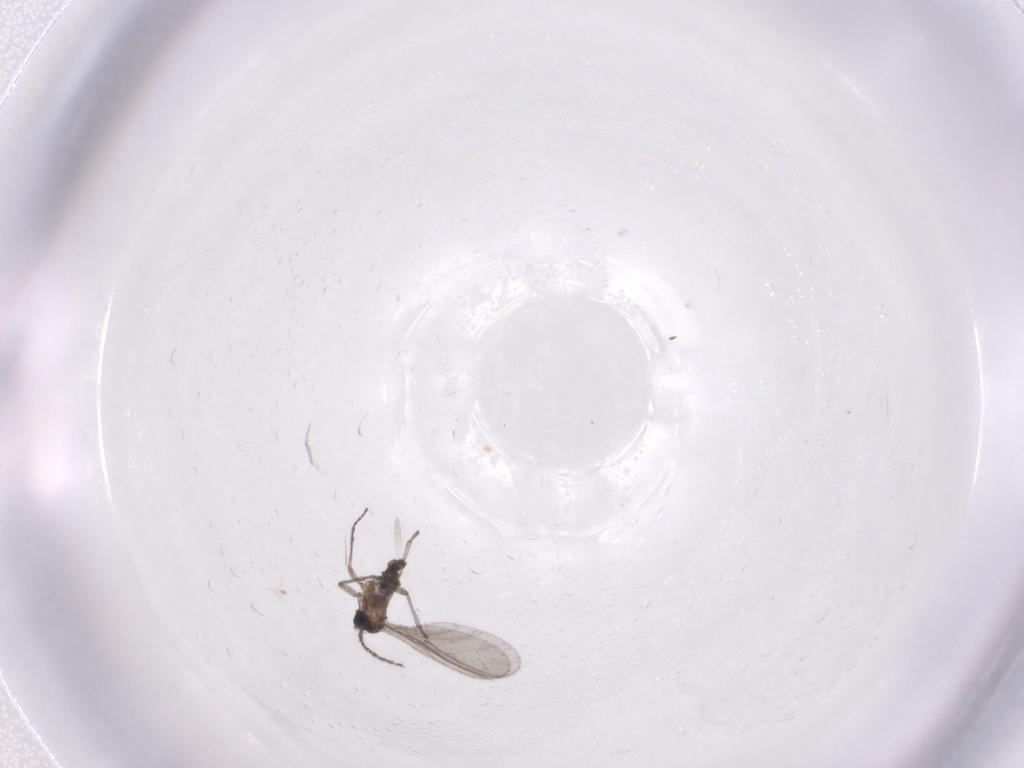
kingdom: Animalia
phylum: Arthropoda
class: Insecta
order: Diptera
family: Sciaridae
